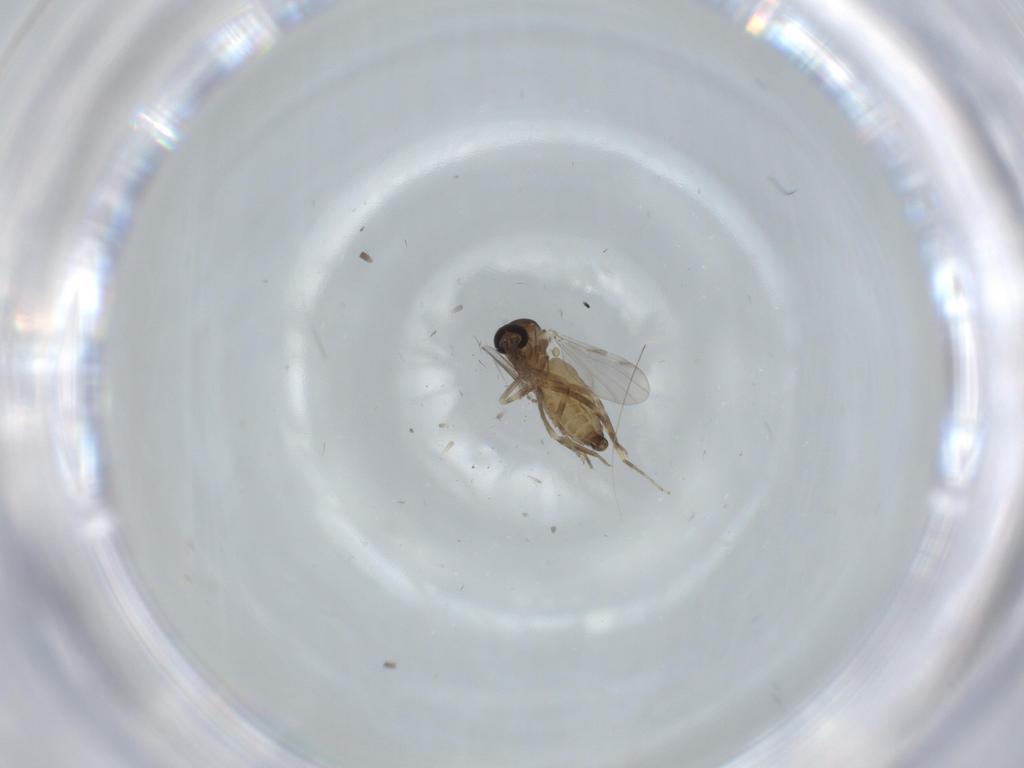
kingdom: Animalia
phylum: Arthropoda
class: Insecta
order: Diptera
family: Ceratopogonidae
